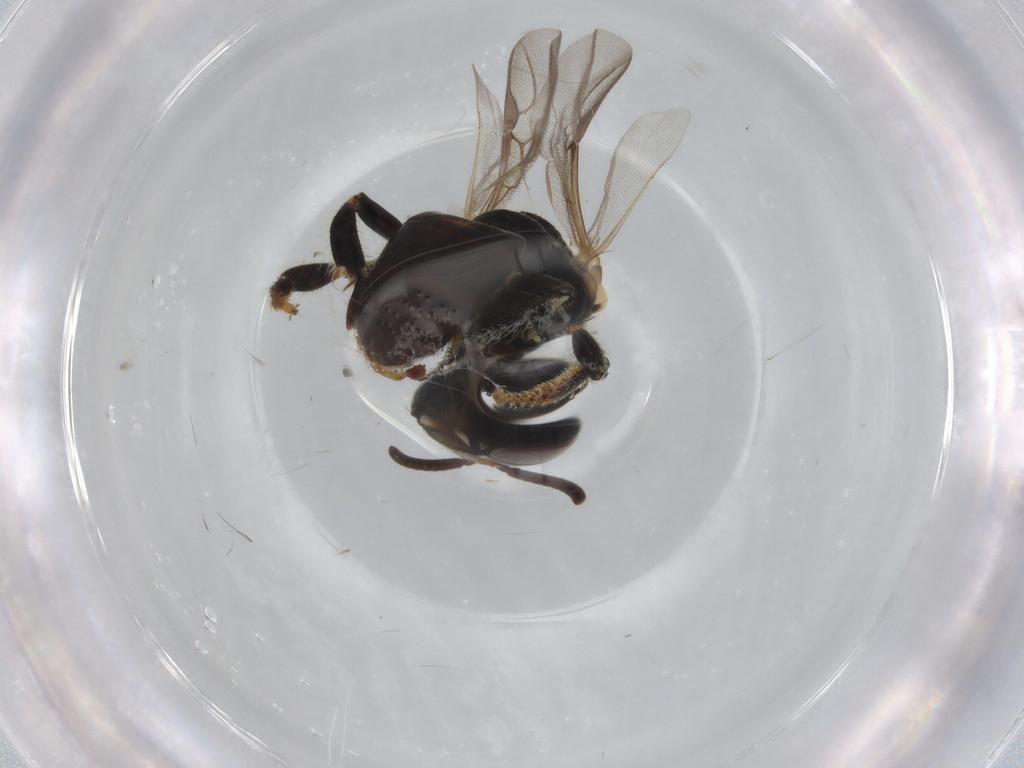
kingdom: Animalia
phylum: Arthropoda
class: Insecta
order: Hymenoptera
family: Apidae
